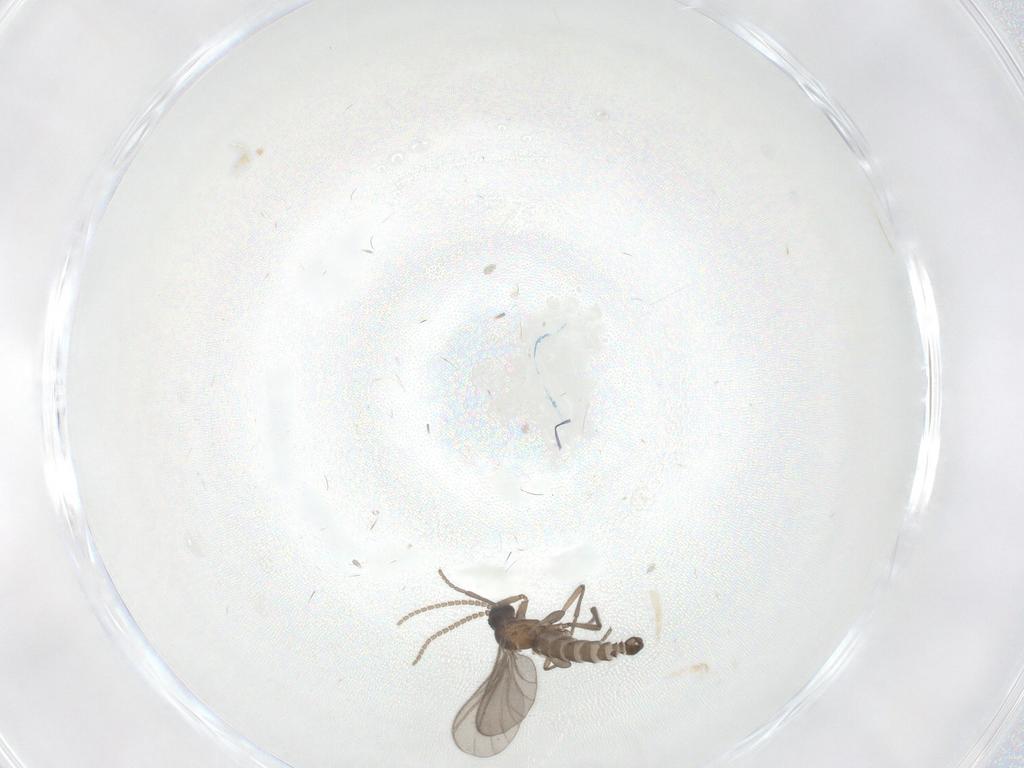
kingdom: Animalia
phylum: Arthropoda
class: Insecta
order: Diptera
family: Sciaridae
